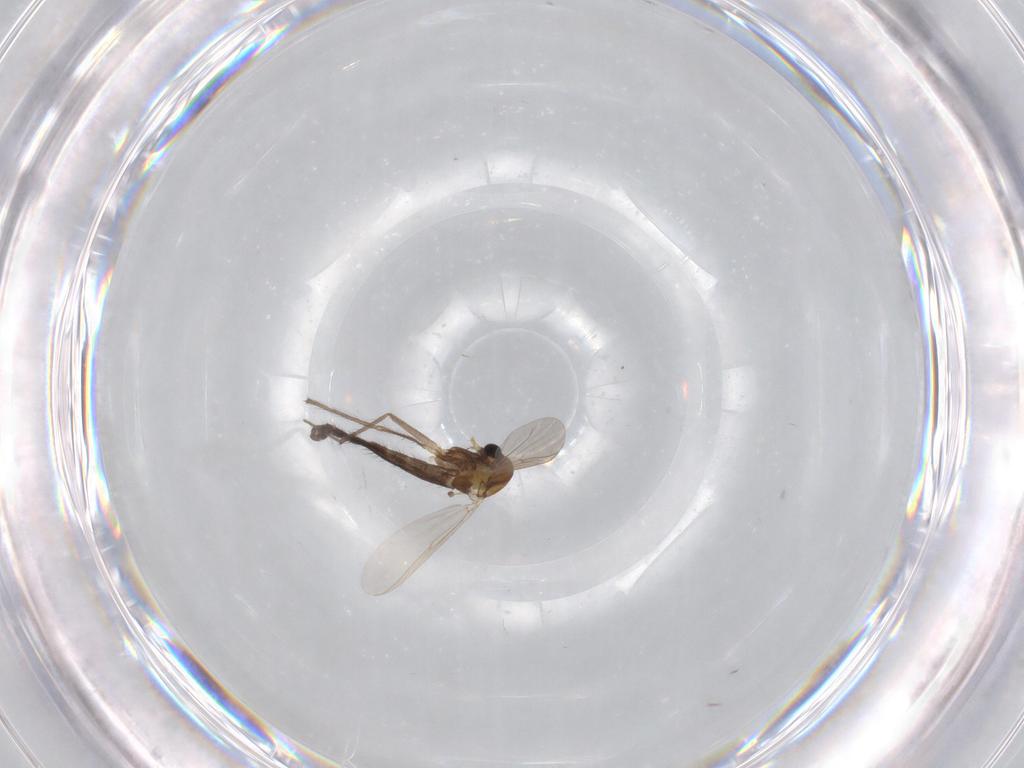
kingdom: Animalia
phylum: Arthropoda
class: Insecta
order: Diptera
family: Chironomidae
